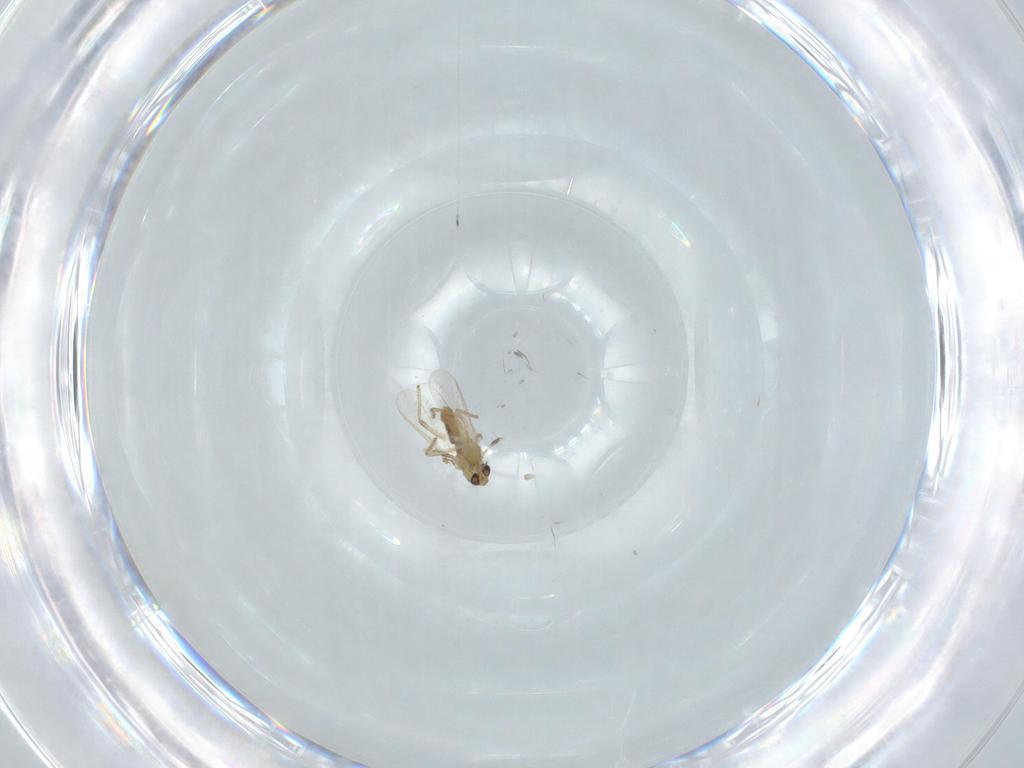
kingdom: Animalia
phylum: Arthropoda
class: Insecta
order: Diptera
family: Chironomidae
